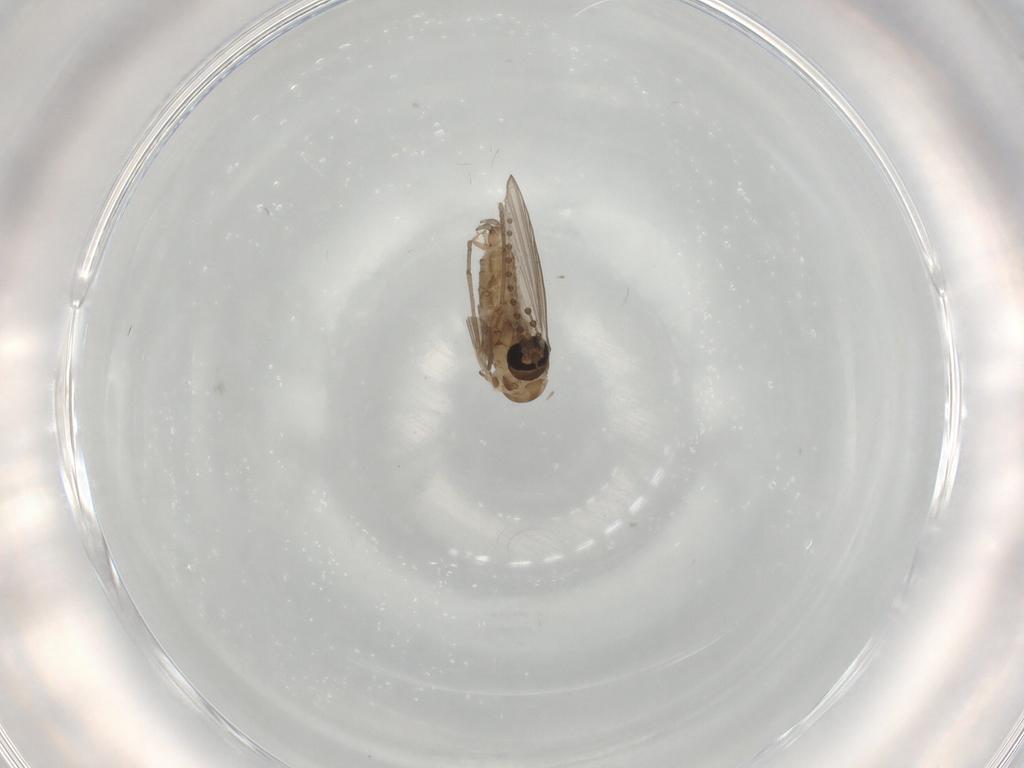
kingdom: Animalia
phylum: Arthropoda
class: Insecta
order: Diptera
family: Psychodidae
